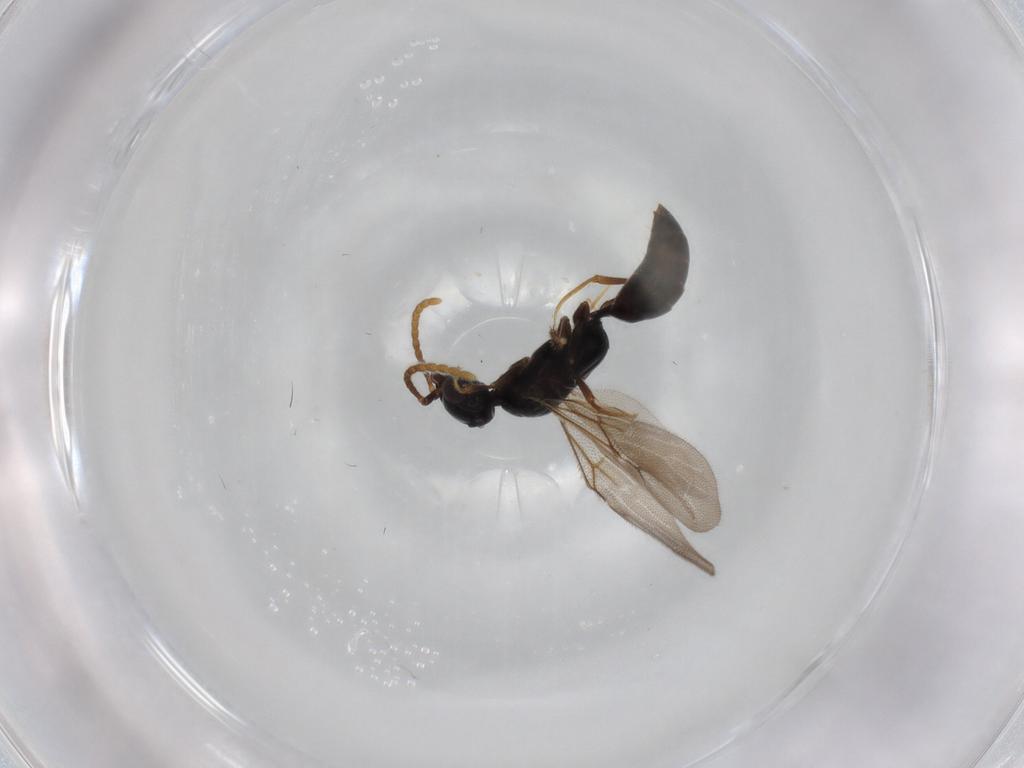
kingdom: Animalia
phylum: Arthropoda
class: Insecta
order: Hymenoptera
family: Bethylidae
